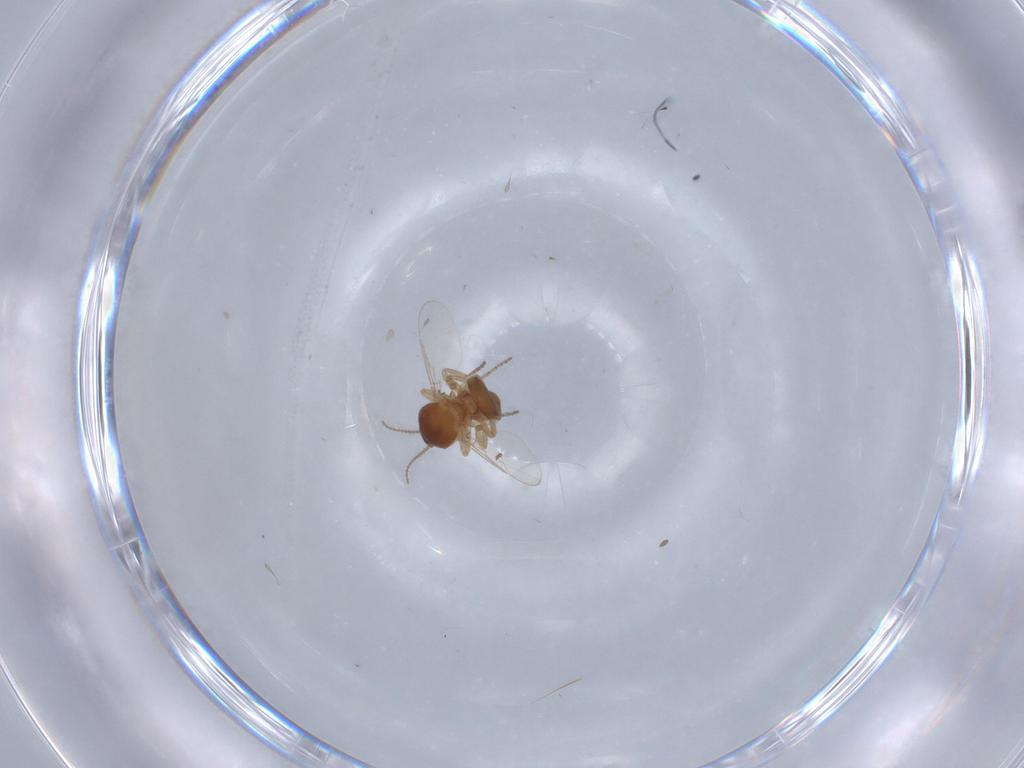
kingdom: Animalia
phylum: Arthropoda
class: Insecta
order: Diptera
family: Ceratopogonidae
